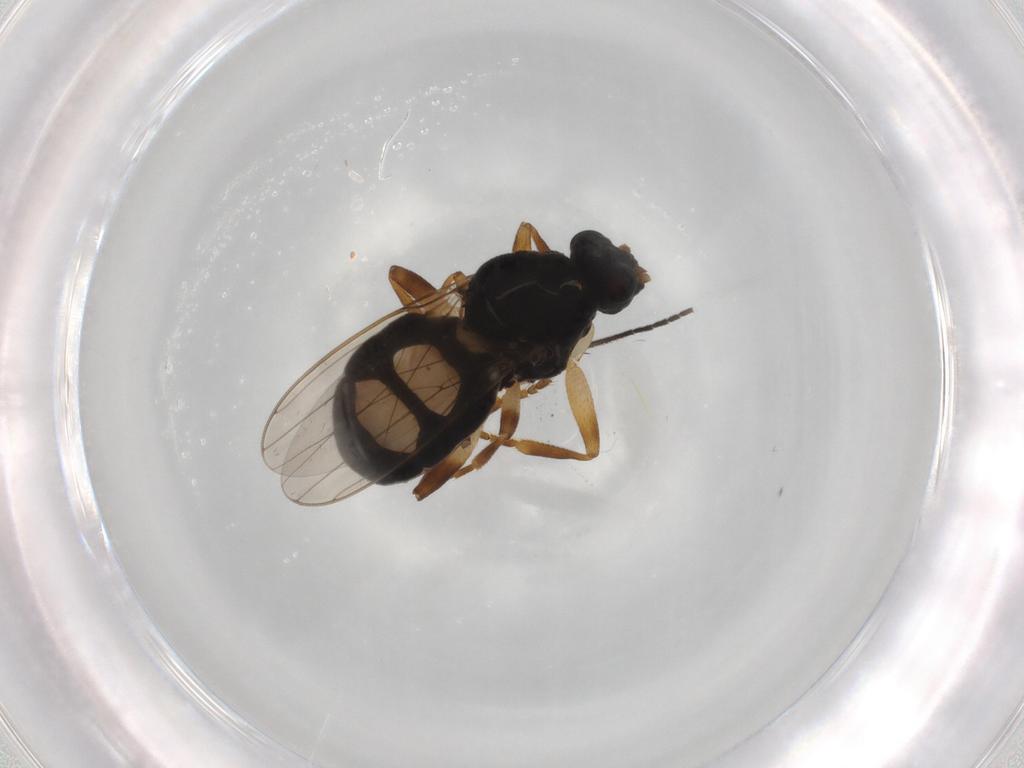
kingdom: Animalia
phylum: Arthropoda
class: Insecta
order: Diptera
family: Sphaeroceridae
